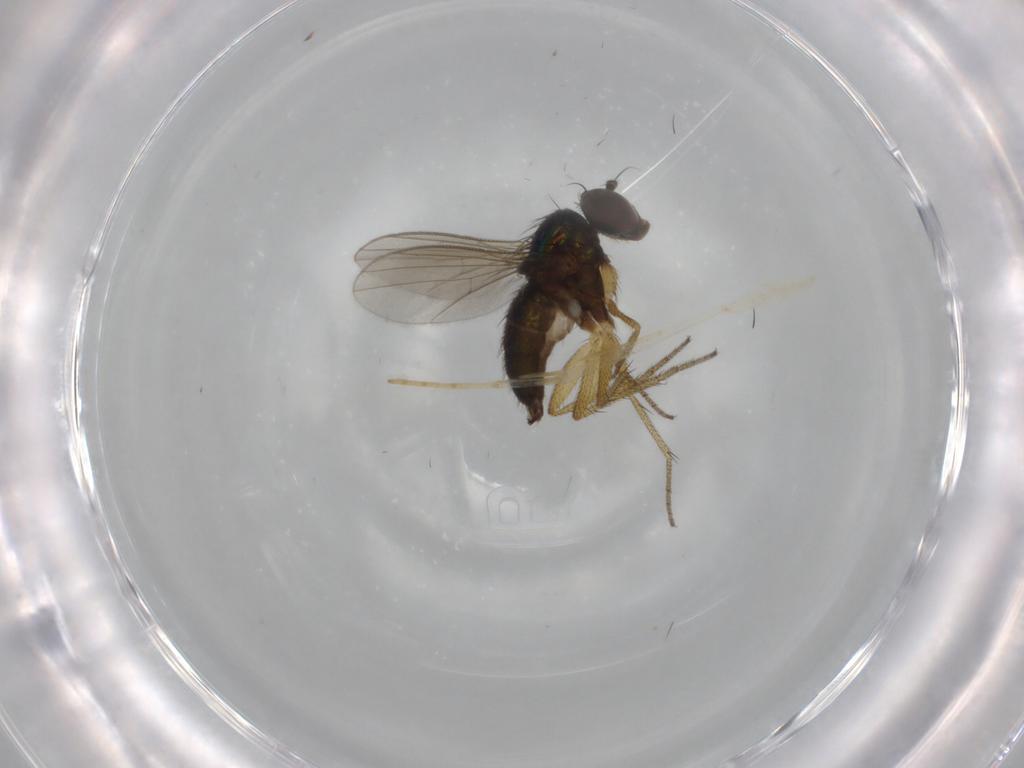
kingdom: Animalia
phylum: Arthropoda
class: Insecta
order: Diptera
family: Dolichopodidae
